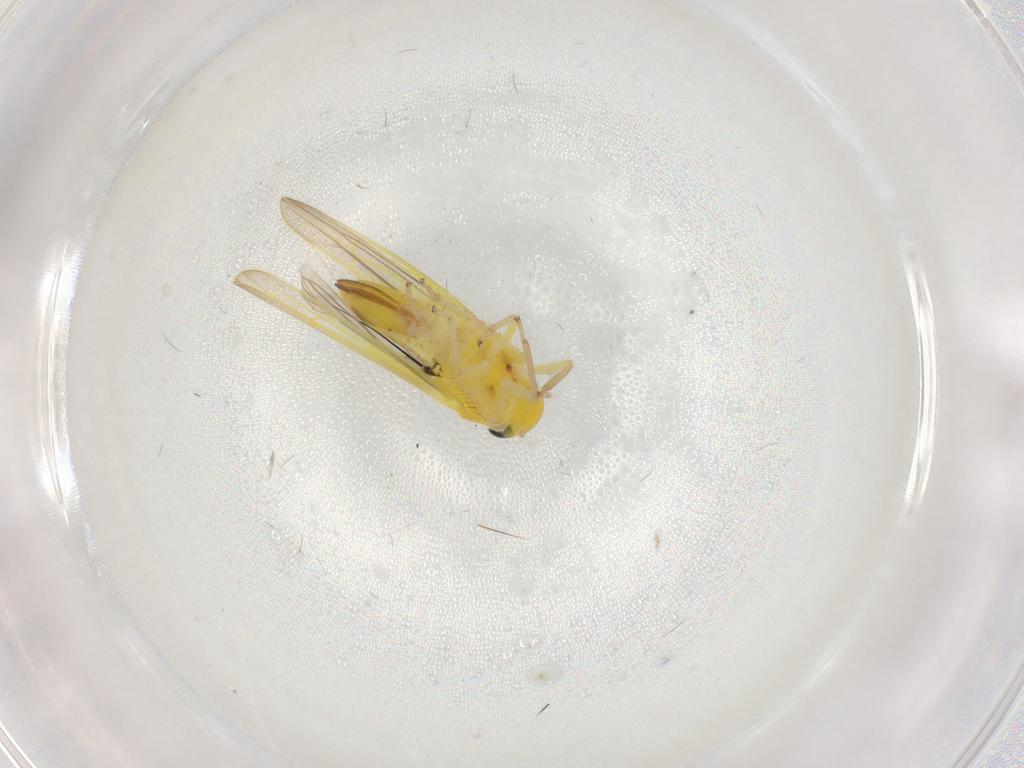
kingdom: Animalia
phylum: Arthropoda
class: Insecta
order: Hemiptera
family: Cicadellidae
